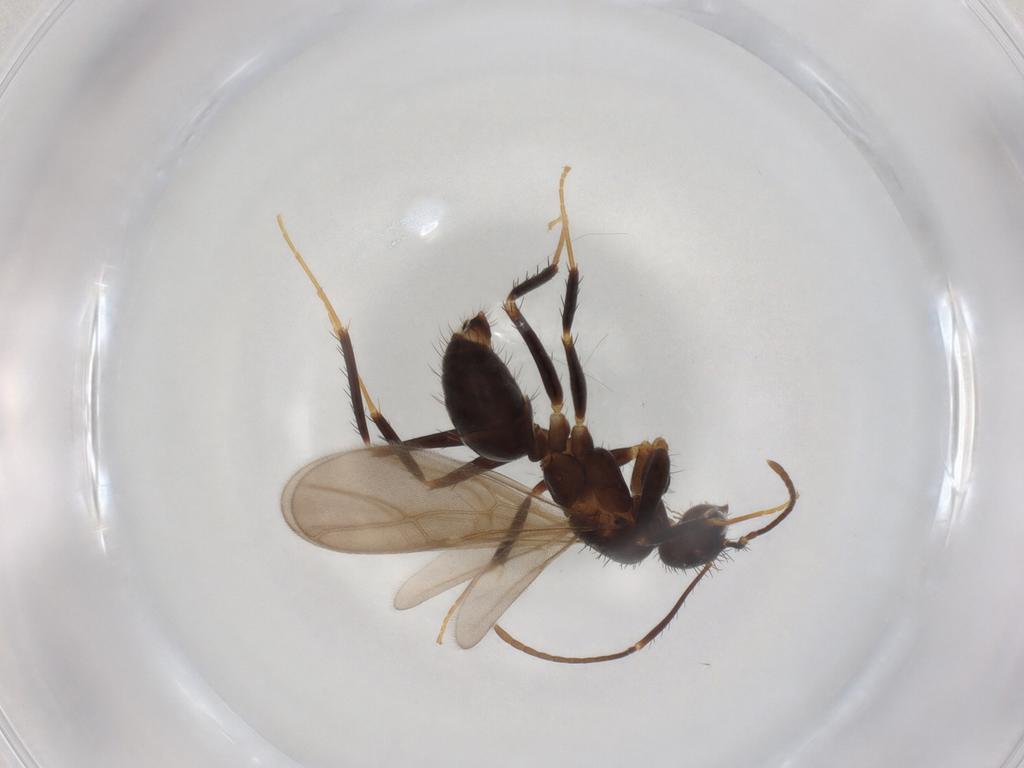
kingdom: Animalia
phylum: Arthropoda
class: Insecta
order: Hymenoptera
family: Formicidae
